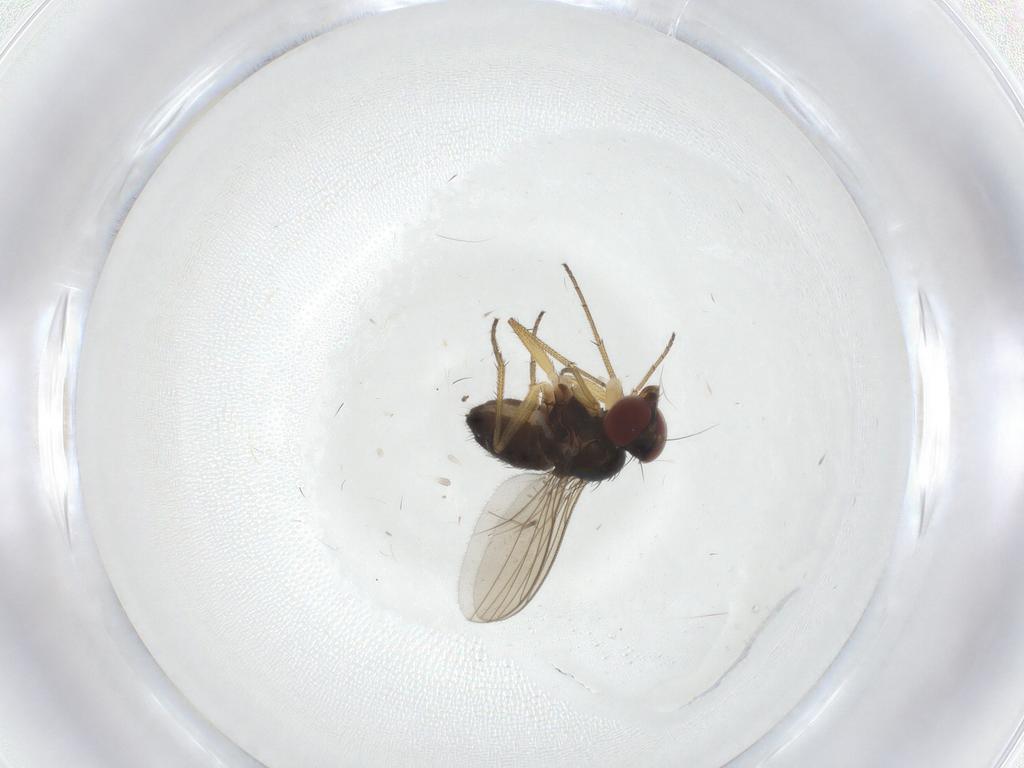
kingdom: Animalia
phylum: Arthropoda
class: Insecta
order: Diptera
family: Dolichopodidae
